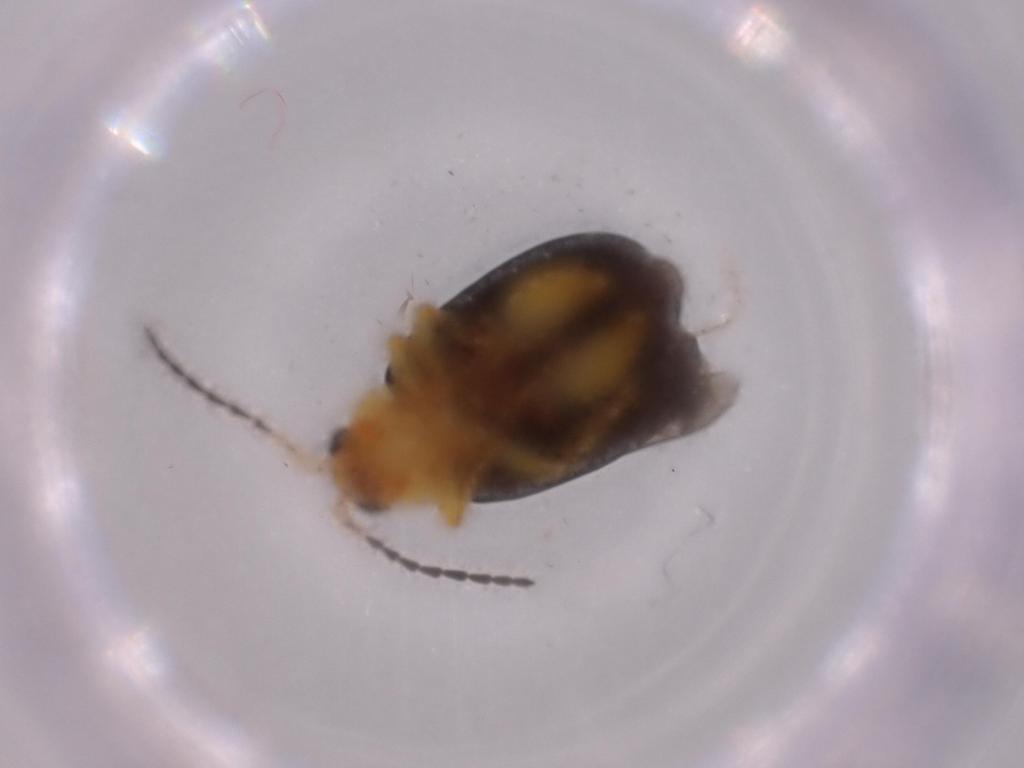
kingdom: Animalia
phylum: Arthropoda
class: Insecta
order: Coleoptera
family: Chrysomelidae
